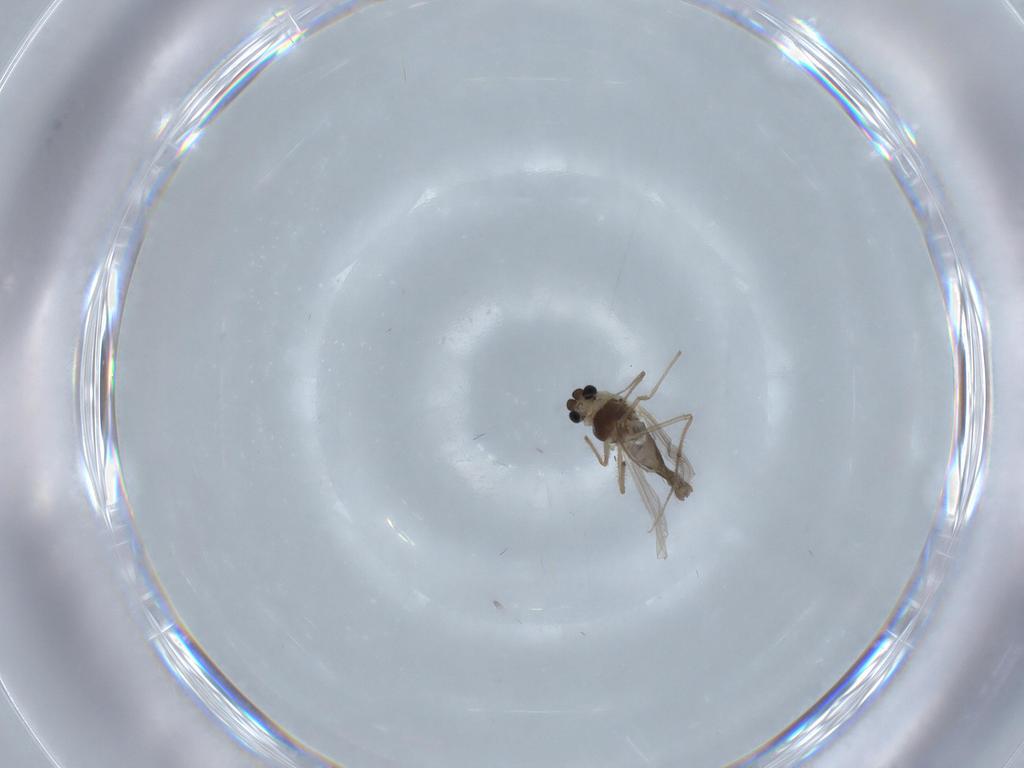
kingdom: Animalia
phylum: Arthropoda
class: Insecta
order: Diptera
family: Chironomidae
